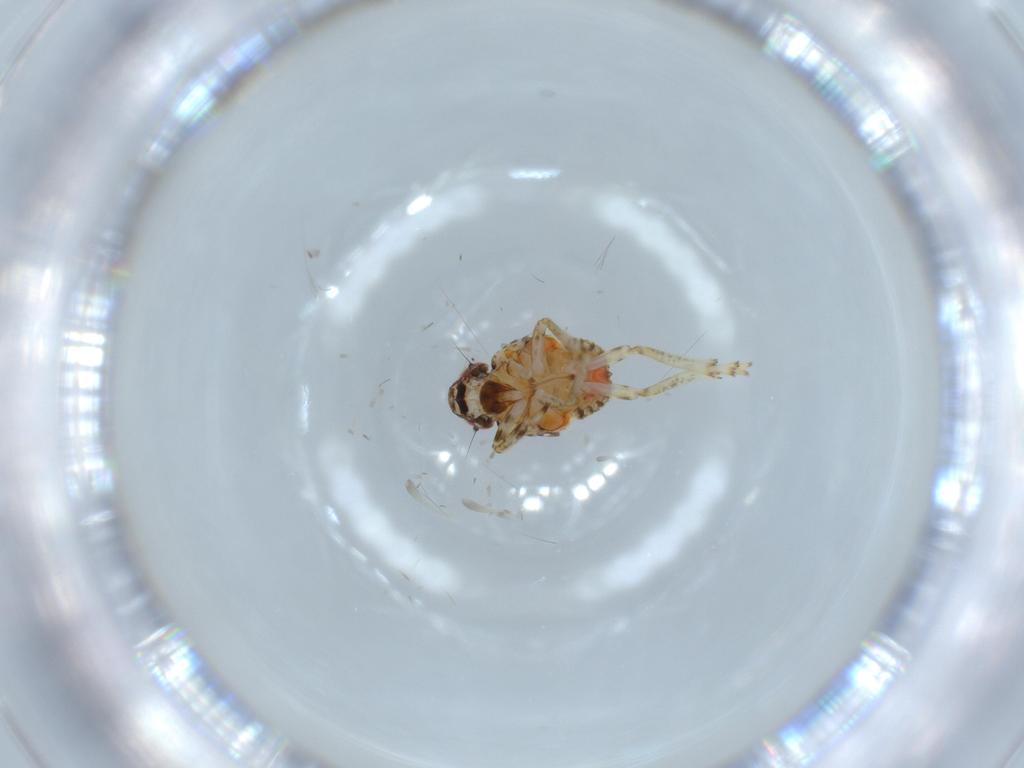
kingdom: Animalia
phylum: Arthropoda
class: Insecta
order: Hemiptera
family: Issidae
